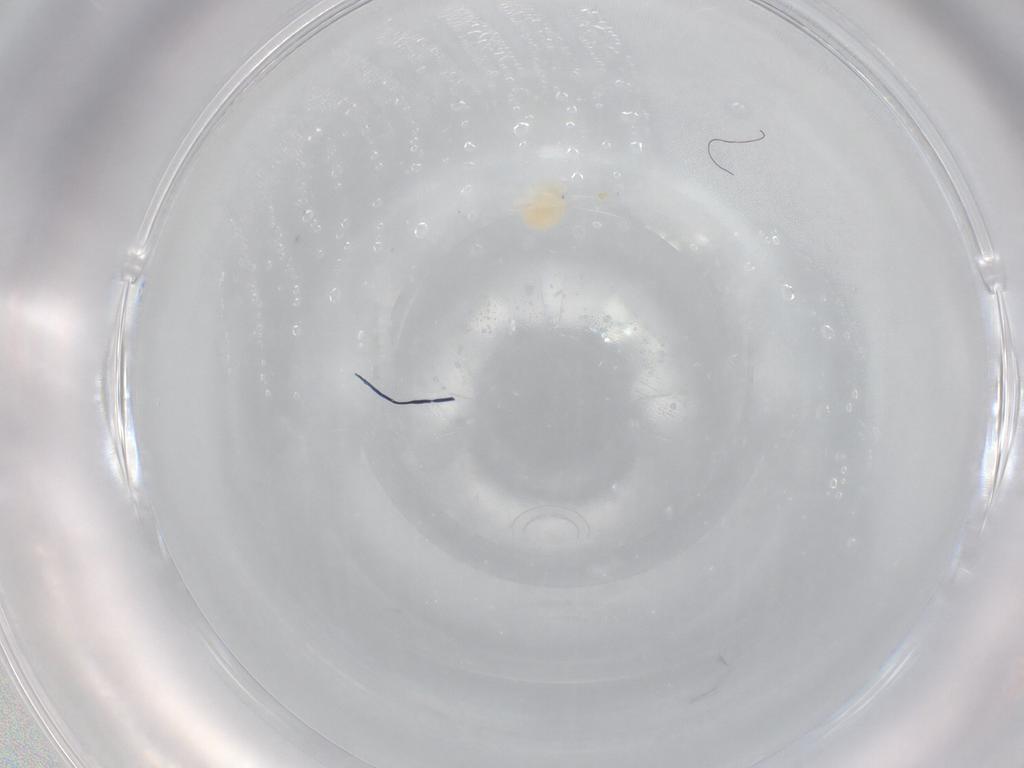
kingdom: Animalia
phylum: Arthropoda
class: Arachnida
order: Trombidiformes
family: Hydryphantidae
